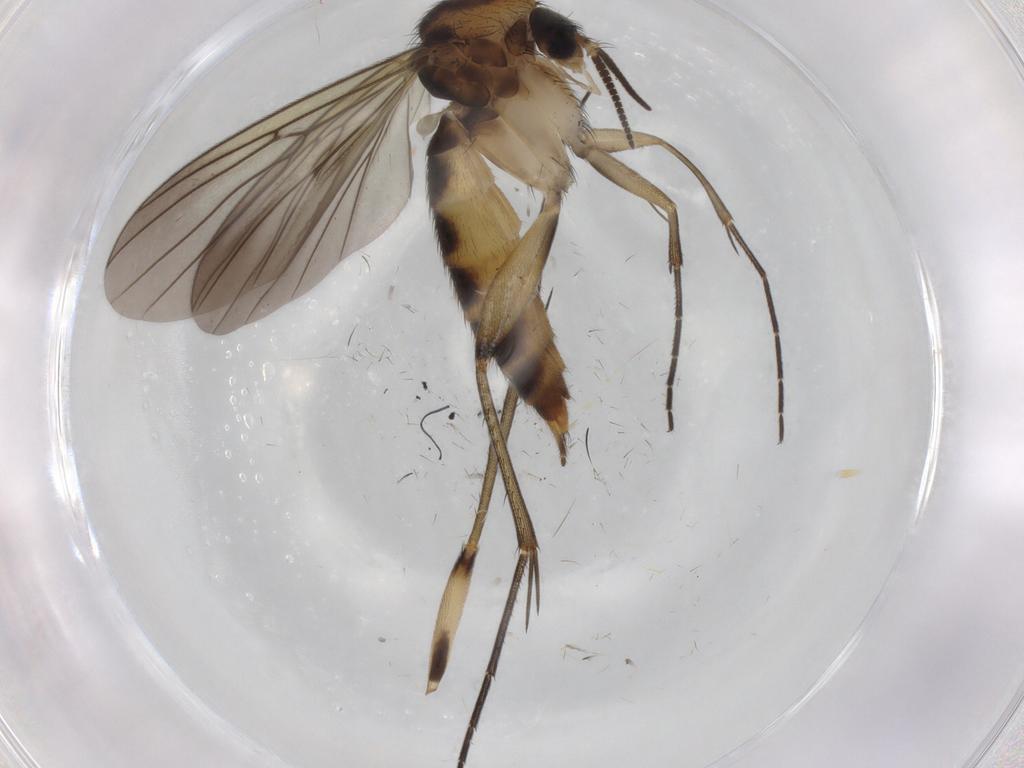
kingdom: Animalia
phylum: Arthropoda
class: Insecta
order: Diptera
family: Mycetophilidae
